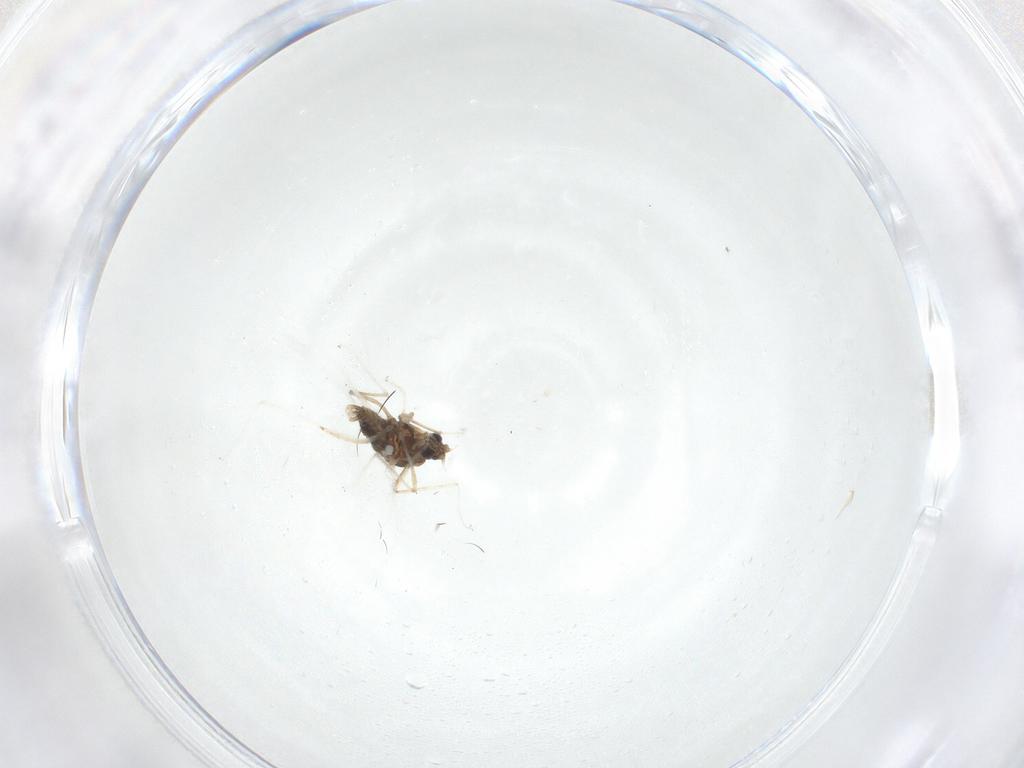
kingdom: Animalia
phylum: Arthropoda
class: Insecta
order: Diptera
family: Cecidomyiidae
